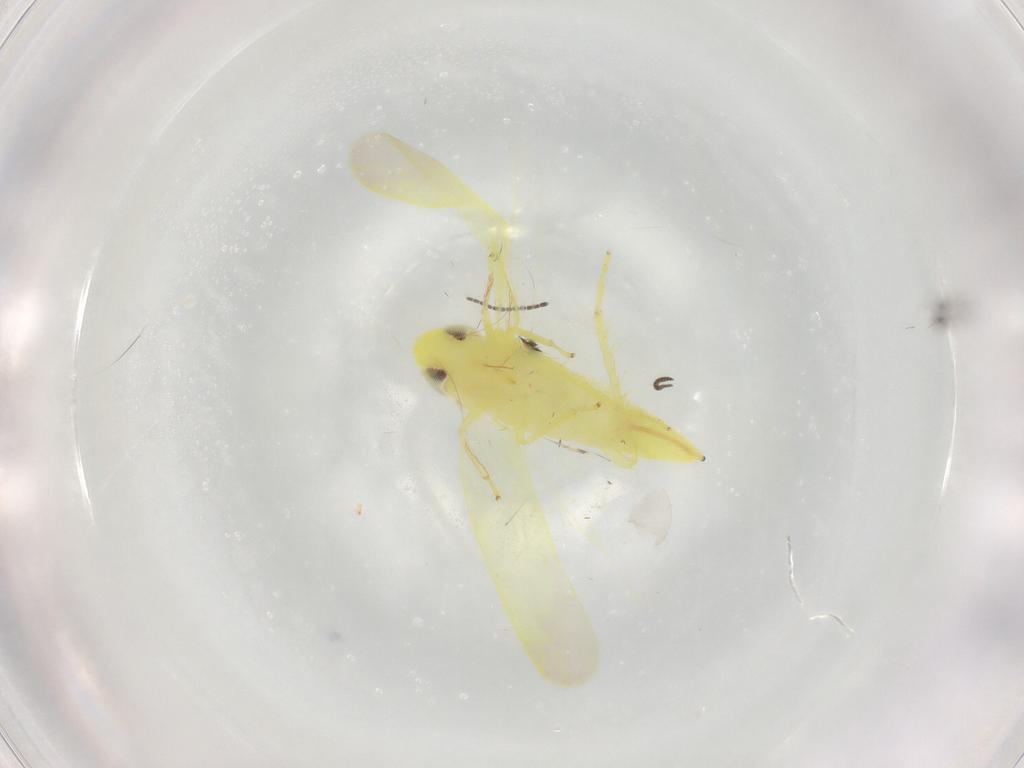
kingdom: Animalia
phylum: Arthropoda
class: Insecta
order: Hemiptera
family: Cicadellidae
